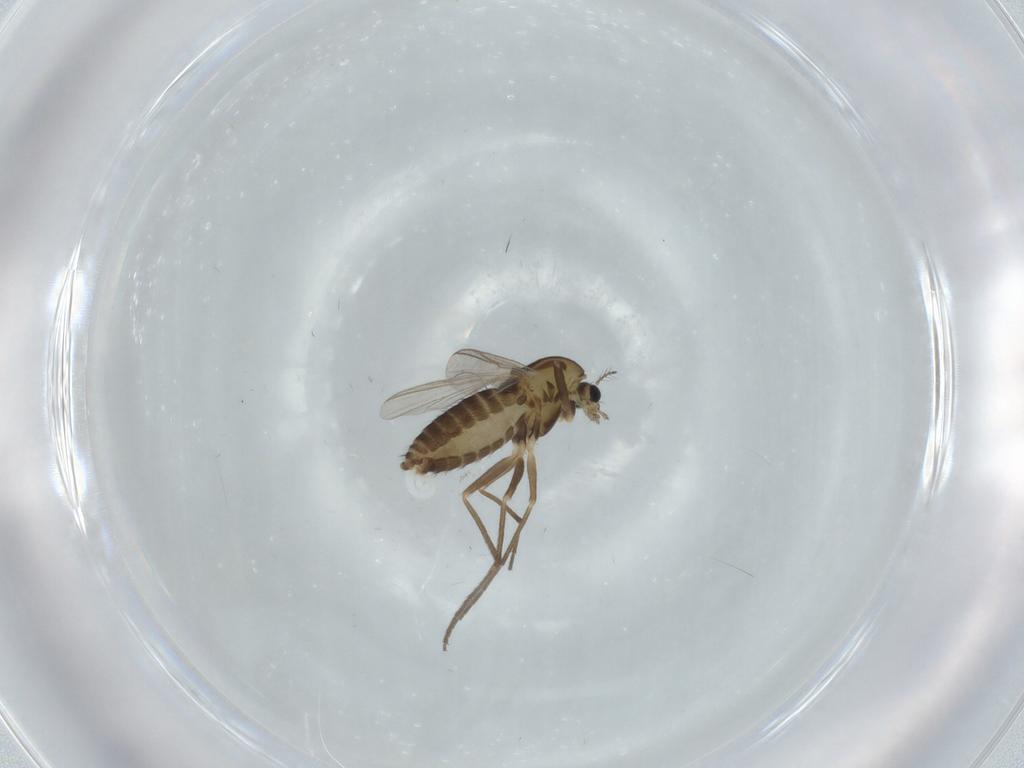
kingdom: Animalia
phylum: Arthropoda
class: Insecta
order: Diptera
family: Chironomidae
